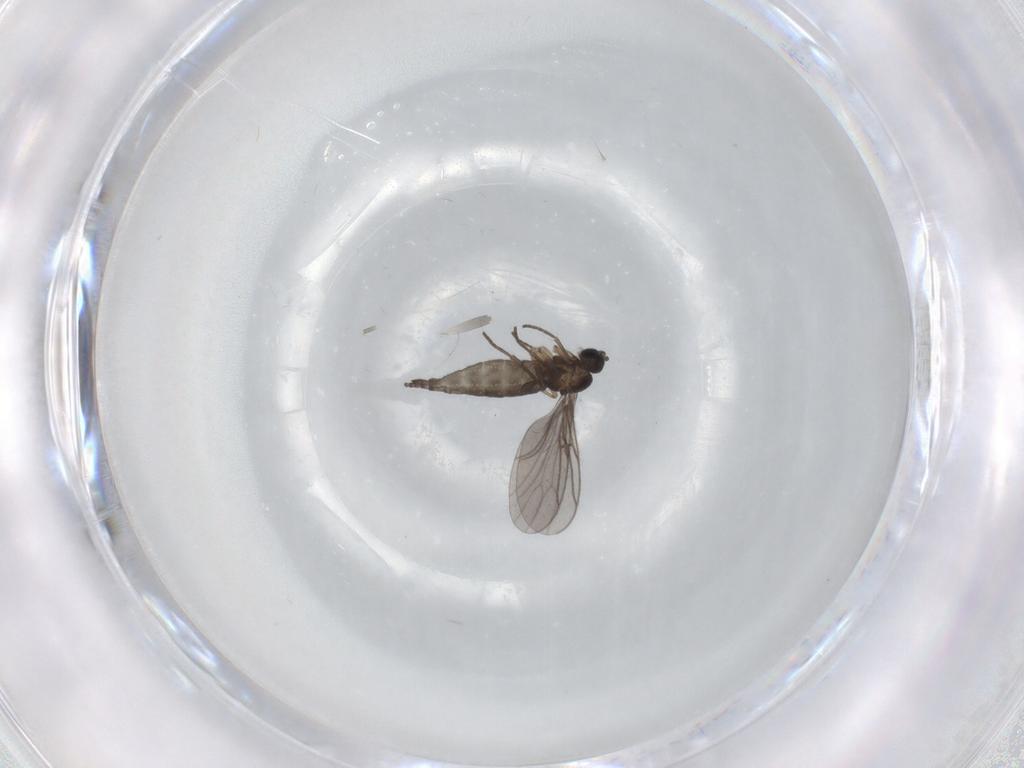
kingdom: Animalia
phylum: Arthropoda
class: Insecta
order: Diptera
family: Sciaridae
